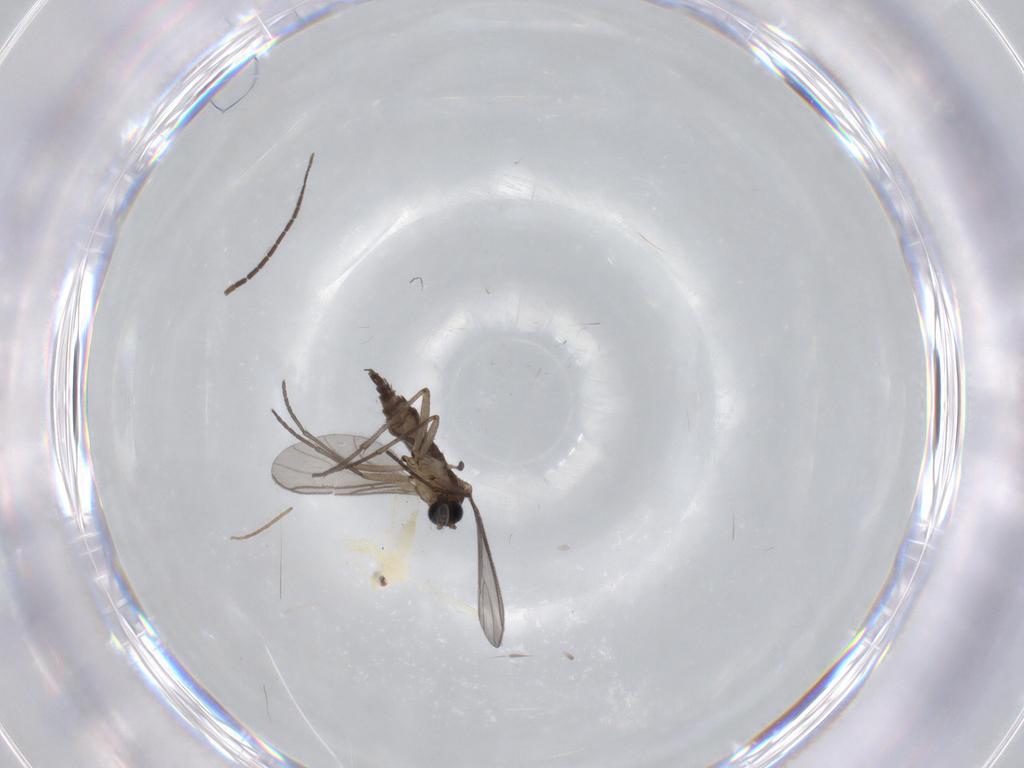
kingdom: Animalia
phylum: Arthropoda
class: Insecta
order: Diptera
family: Sciaridae
